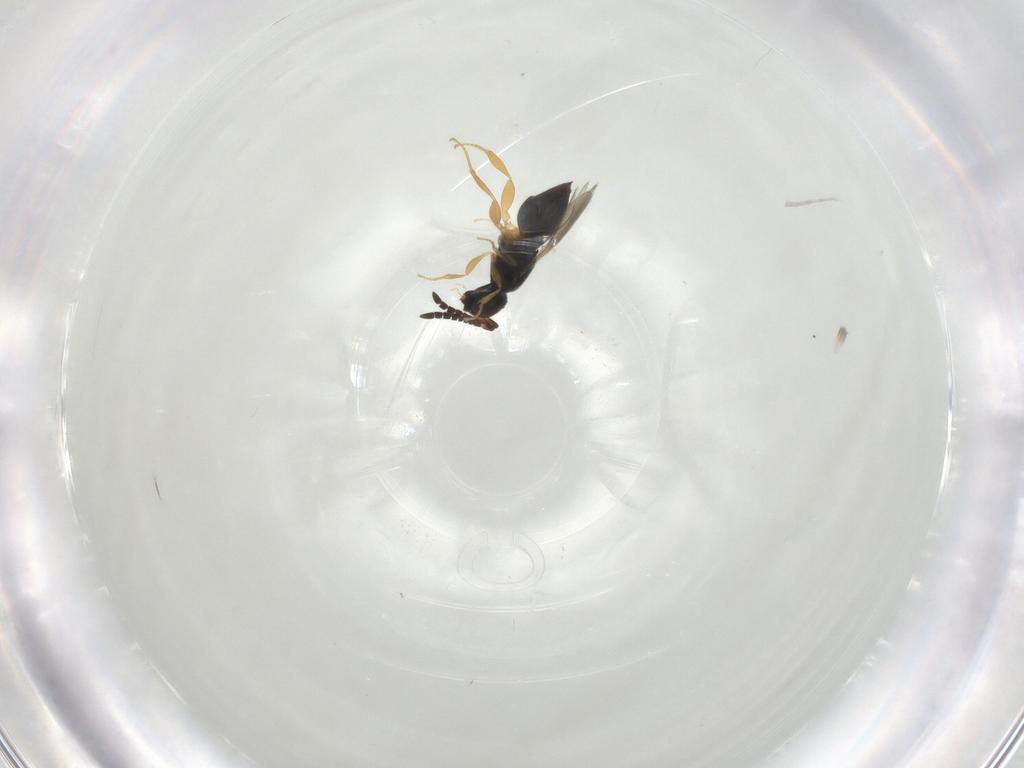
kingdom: Animalia
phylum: Arthropoda
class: Insecta
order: Hymenoptera
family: Ceraphronidae
